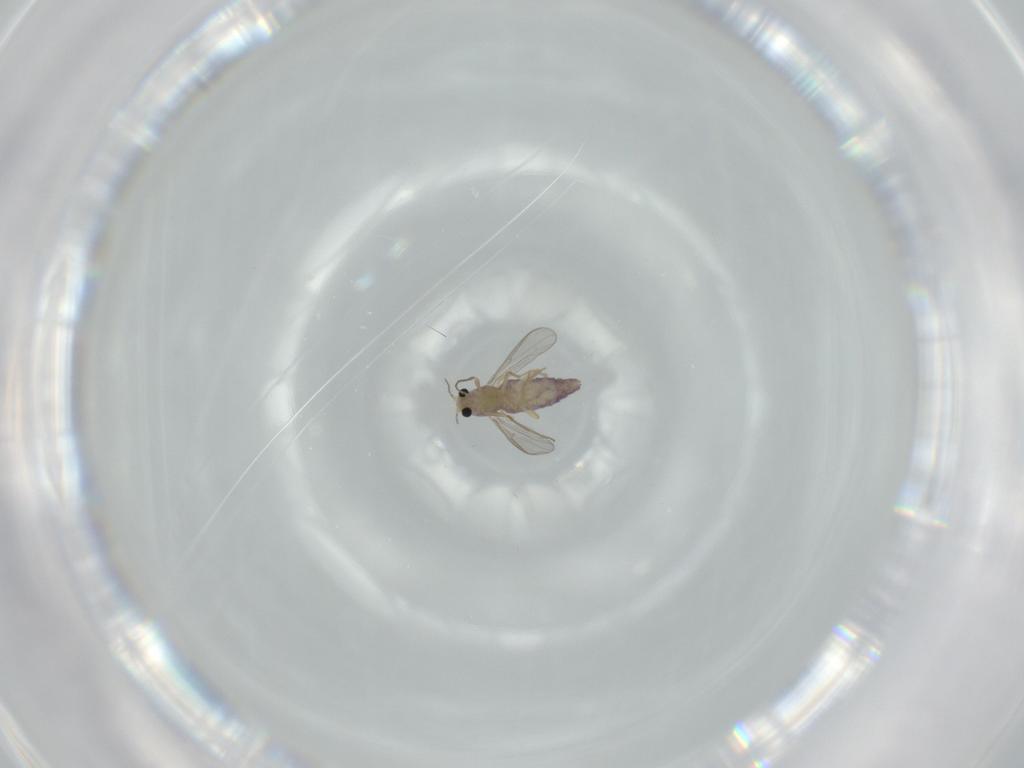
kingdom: Animalia
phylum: Arthropoda
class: Insecta
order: Diptera
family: Chironomidae
